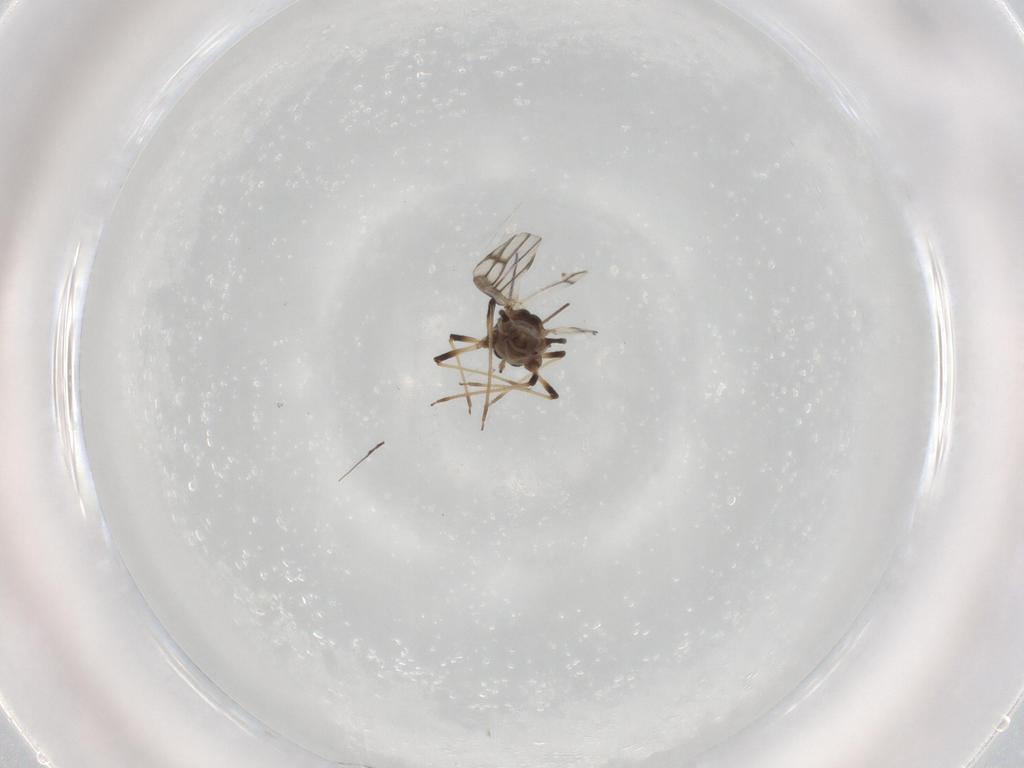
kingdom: Animalia
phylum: Arthropoda
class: Insecta
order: Hemiptera
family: Aphididae
